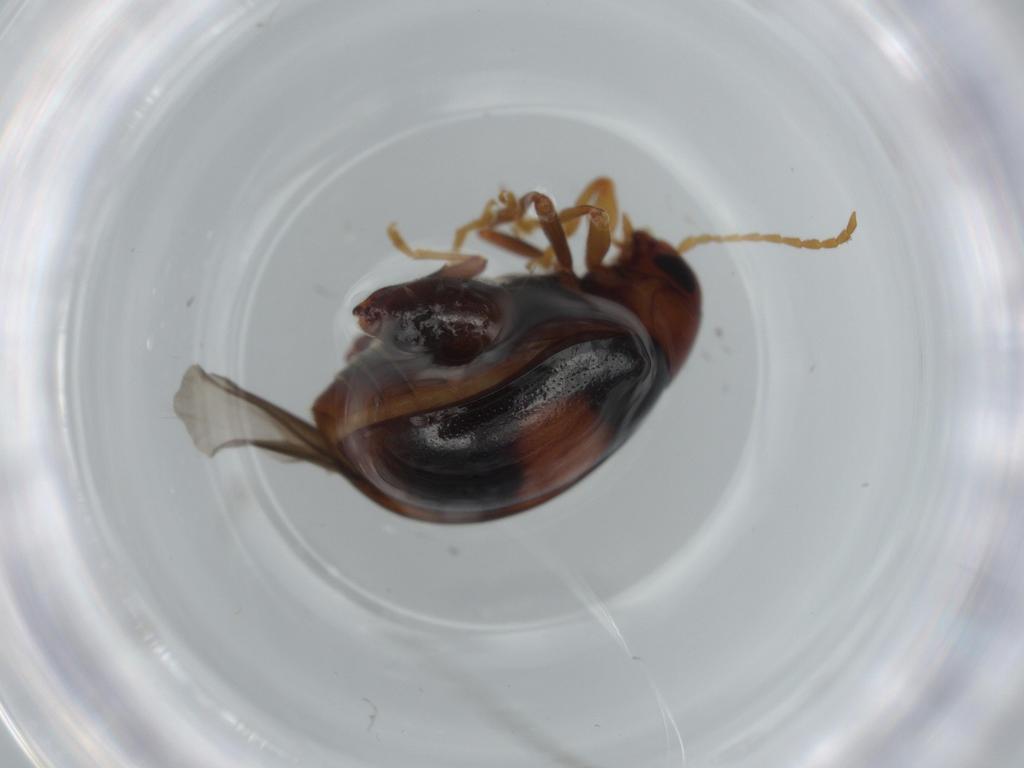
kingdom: Animalia
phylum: Arthropoda
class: Insecta
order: Coleoptera
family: Chrysomelidae
